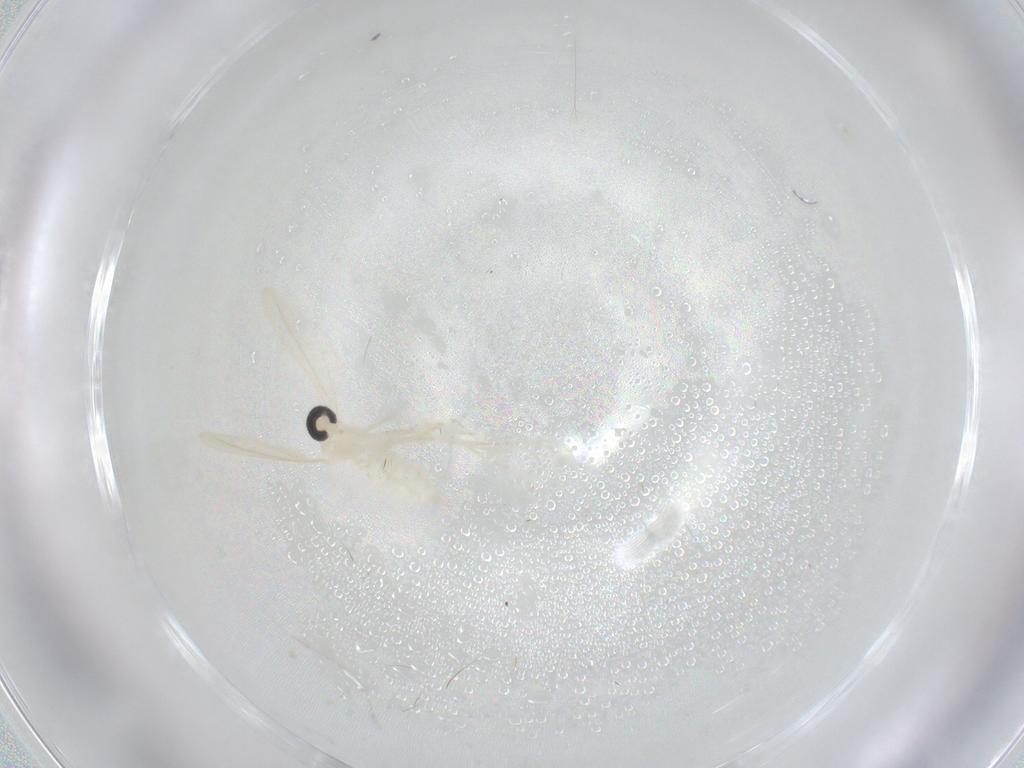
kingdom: Animalia
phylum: Arthropoda
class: Insecta
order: Diptera
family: Cecidomyiidae
